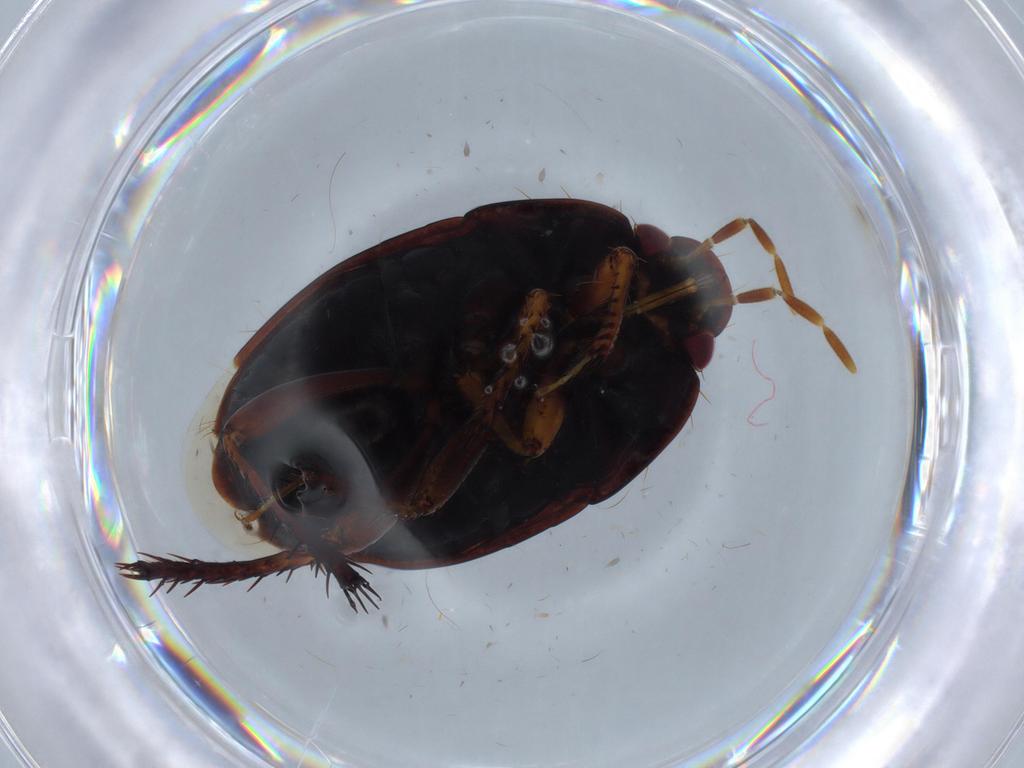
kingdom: Animalia
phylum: Arthropoda
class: Insecta
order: Hemiptera
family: Cydnidae
